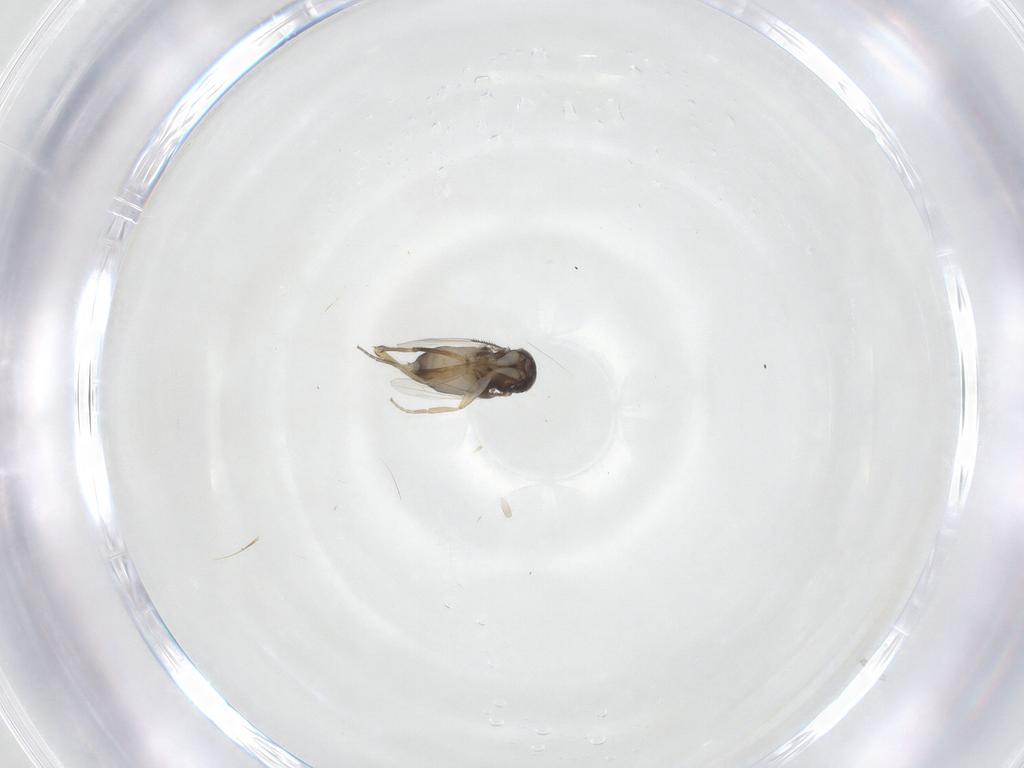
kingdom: Animalia
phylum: Arthropoda
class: Insecta
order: Diptera
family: Phoridae
